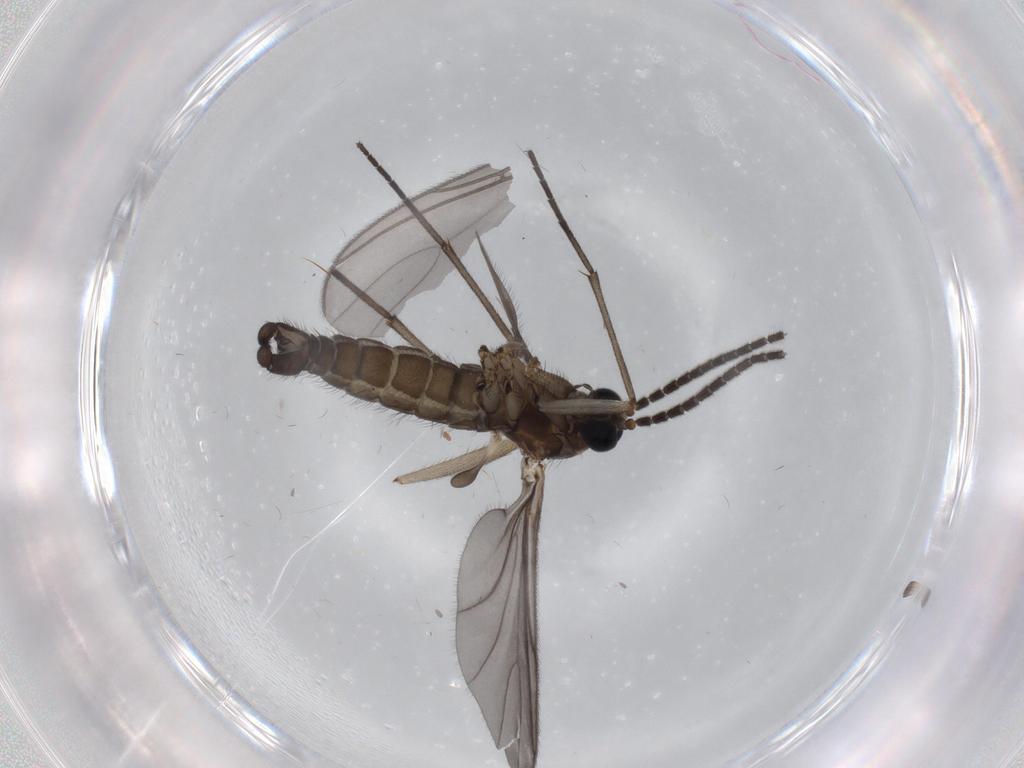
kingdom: Animalia
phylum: Arthropoda
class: Insecta
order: Diptera
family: Sciaridae
